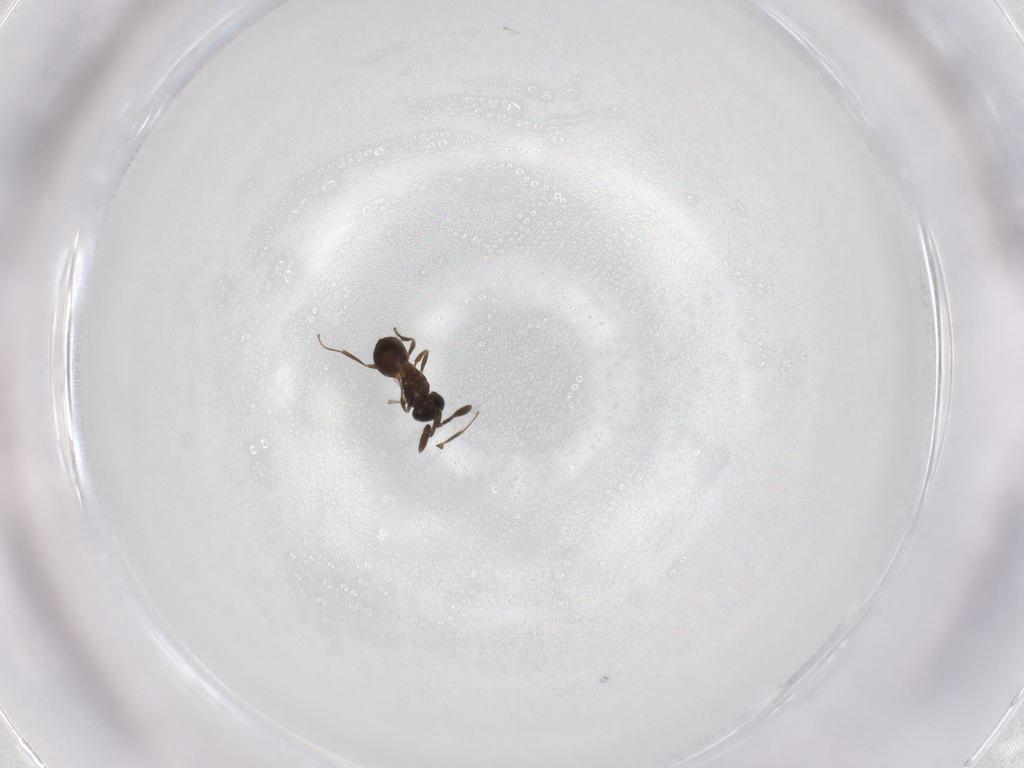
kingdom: Animalia
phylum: Arthropoda
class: Insecta
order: Hymenoptera
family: Scelionidae
